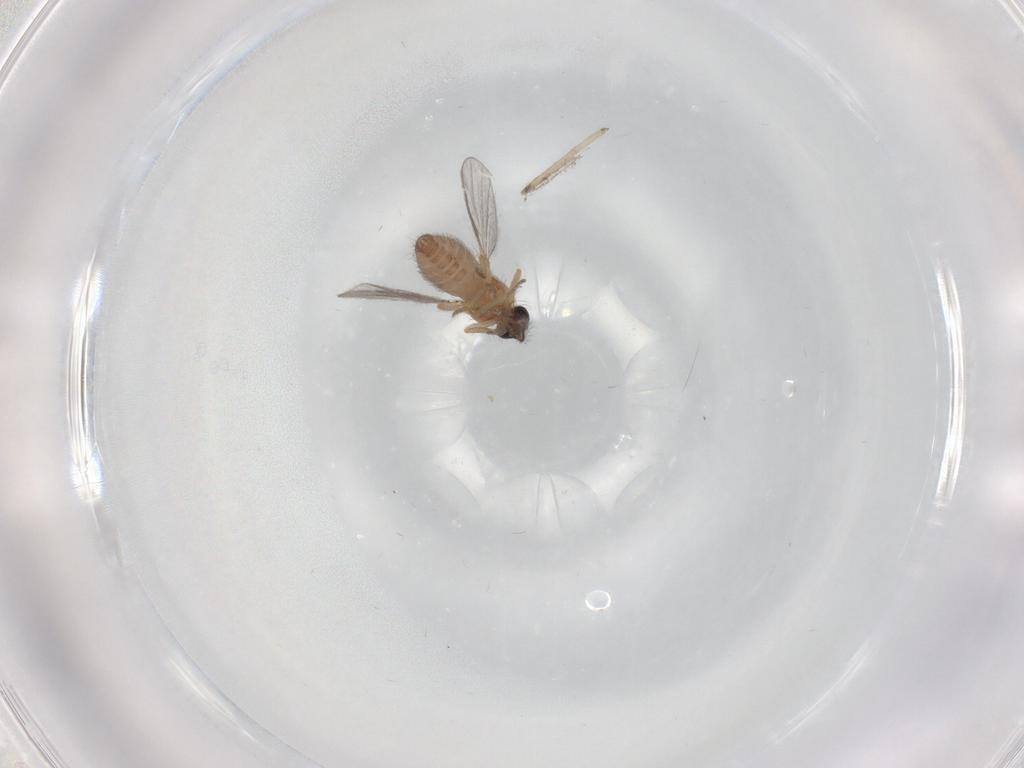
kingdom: Animalia
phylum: Arthropoda
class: Insecta
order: Diptera
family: Ceratopogonidae
